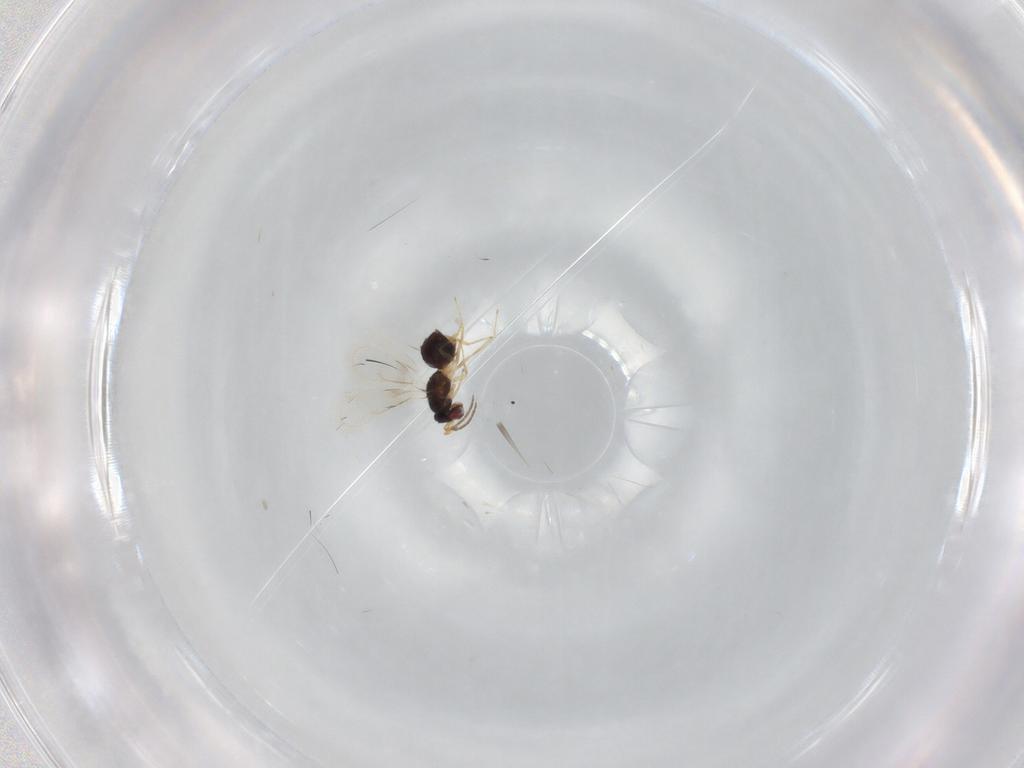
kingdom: Animalia
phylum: Arthropoda
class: Insecta
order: Hymenoptera
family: Eulophidae
